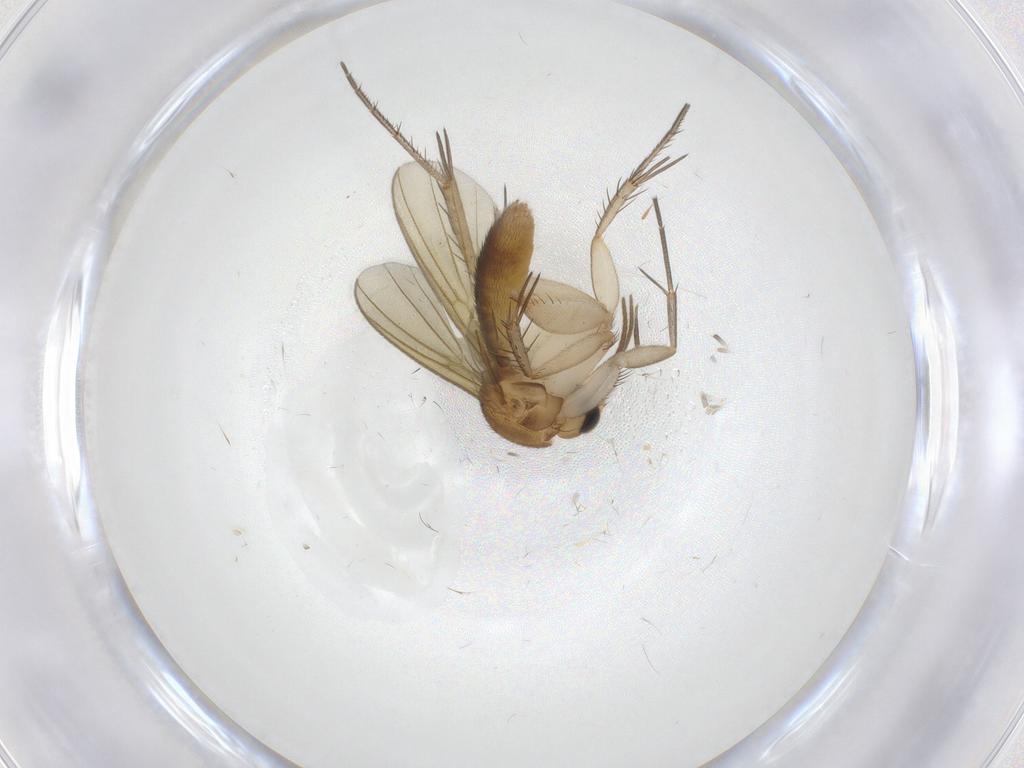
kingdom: Animalia
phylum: Arthropoda
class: Insecta
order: Diptera
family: Mycetophilidae
